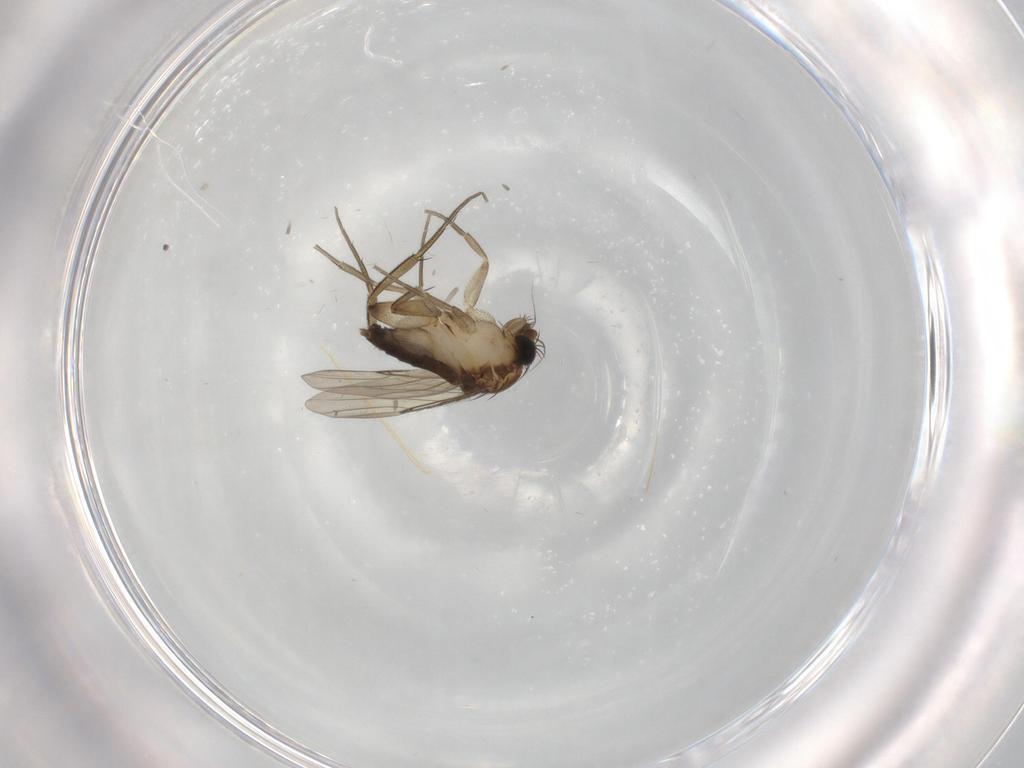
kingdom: Animalia
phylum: Arthropoda
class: Insecta
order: Diptera
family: Phoridae
